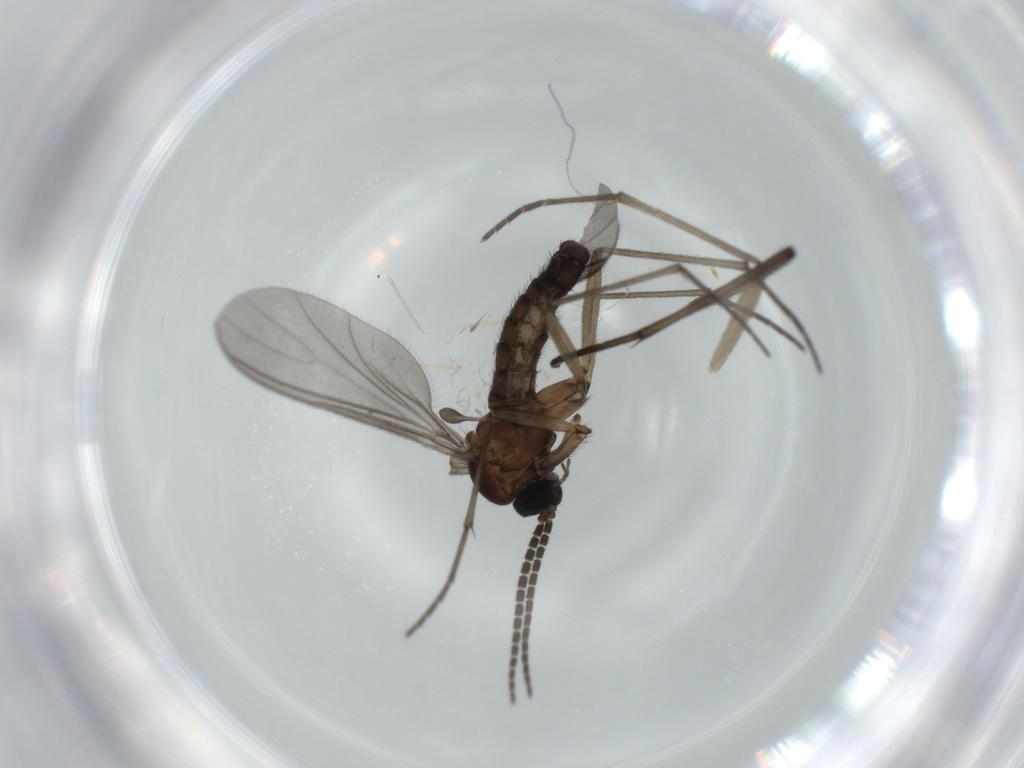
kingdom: Animalia
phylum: Arthropoda
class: Insecta
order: Diptera
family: Sciaridae
